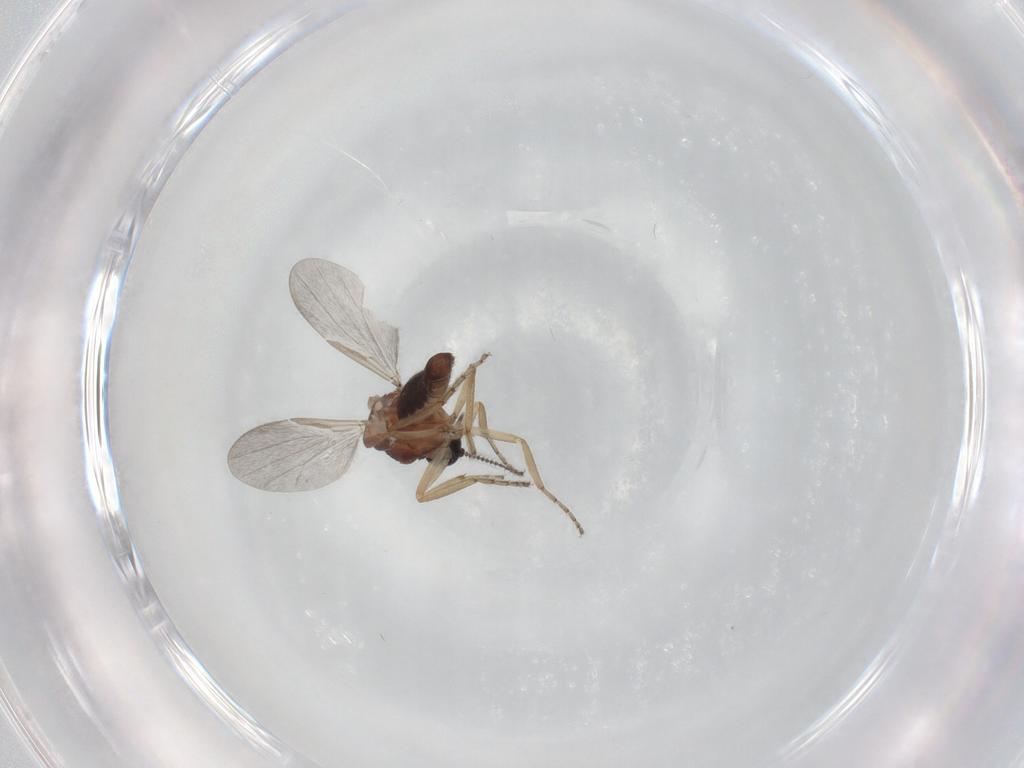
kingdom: Animalia
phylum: Arthropoda
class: Insecta
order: Diptera
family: Ceratopogonidae
